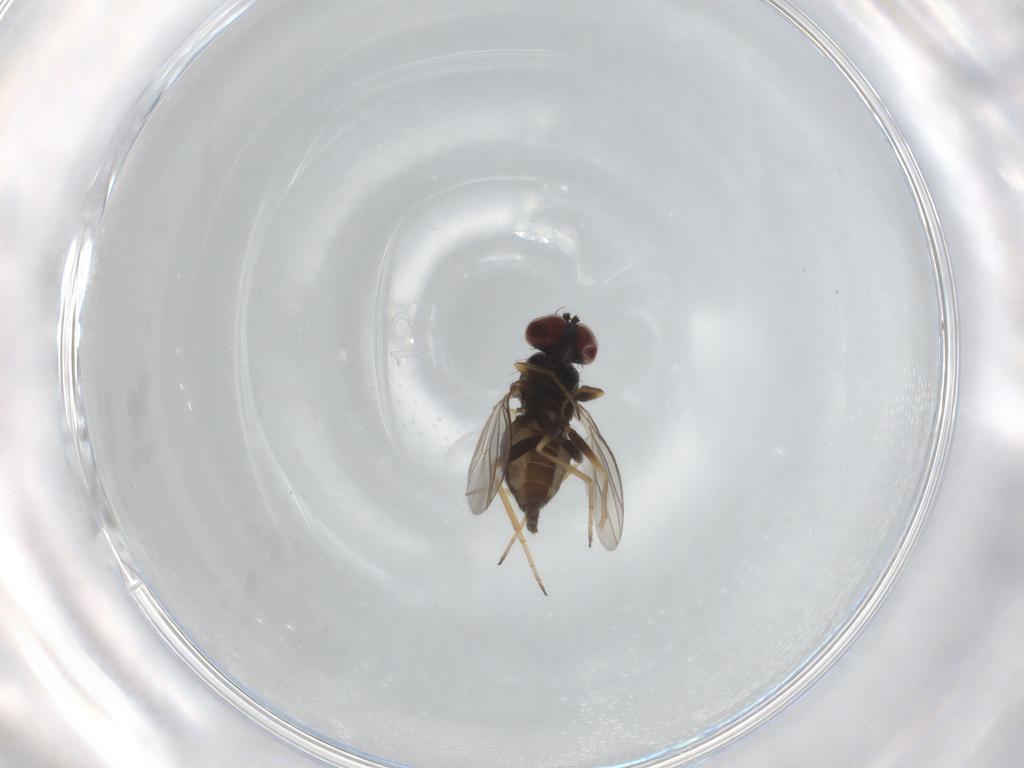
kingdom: Animalia
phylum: Arthropoda
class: Insecta
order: Diptera
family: Dolichopodidae
